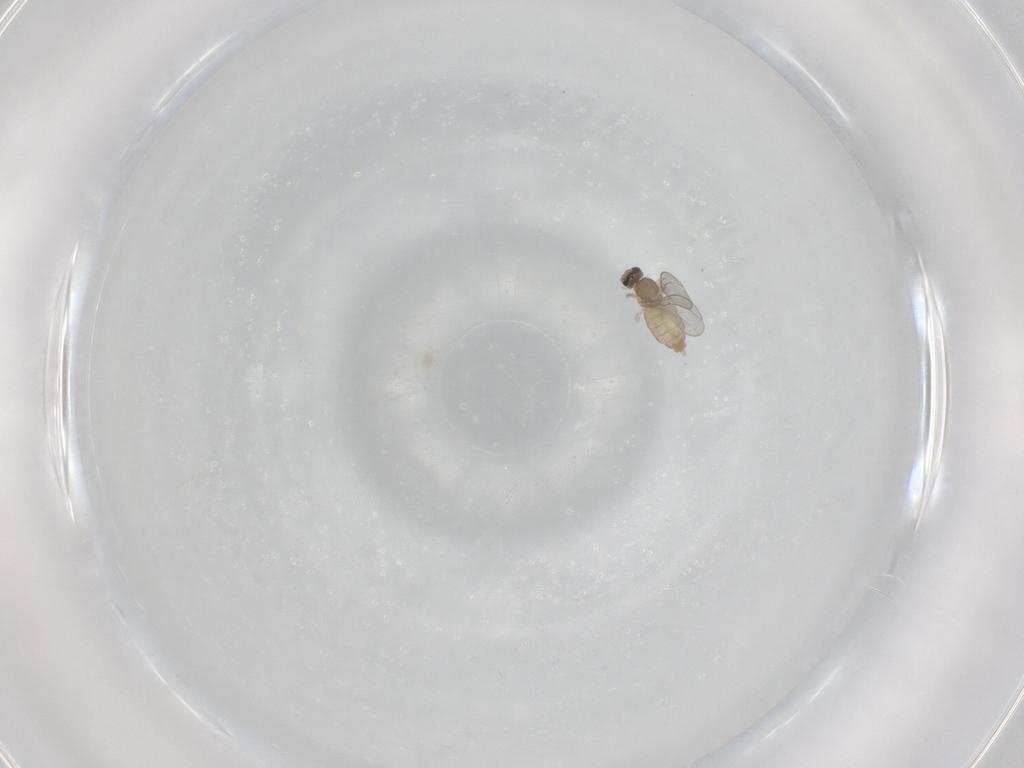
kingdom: Animalia
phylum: Arthropoda
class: Insecta
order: Diptera
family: Cecidomyiidae
